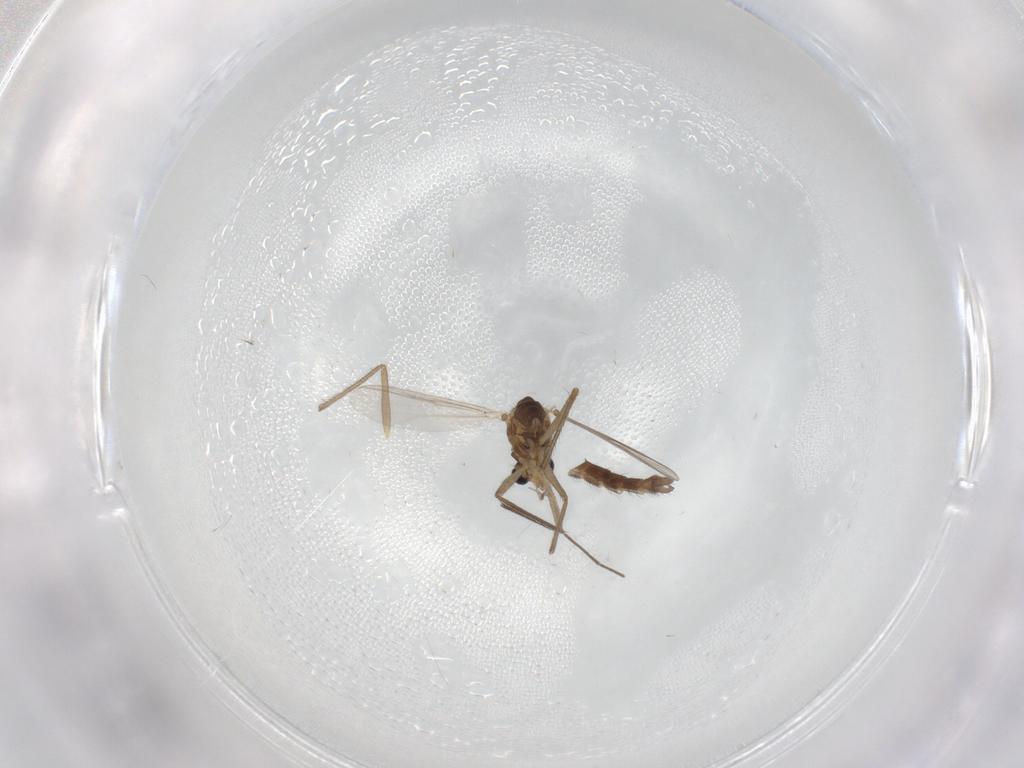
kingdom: Animalia
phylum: Arthropoda
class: Insecta
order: Diptera
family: Chironomidae
